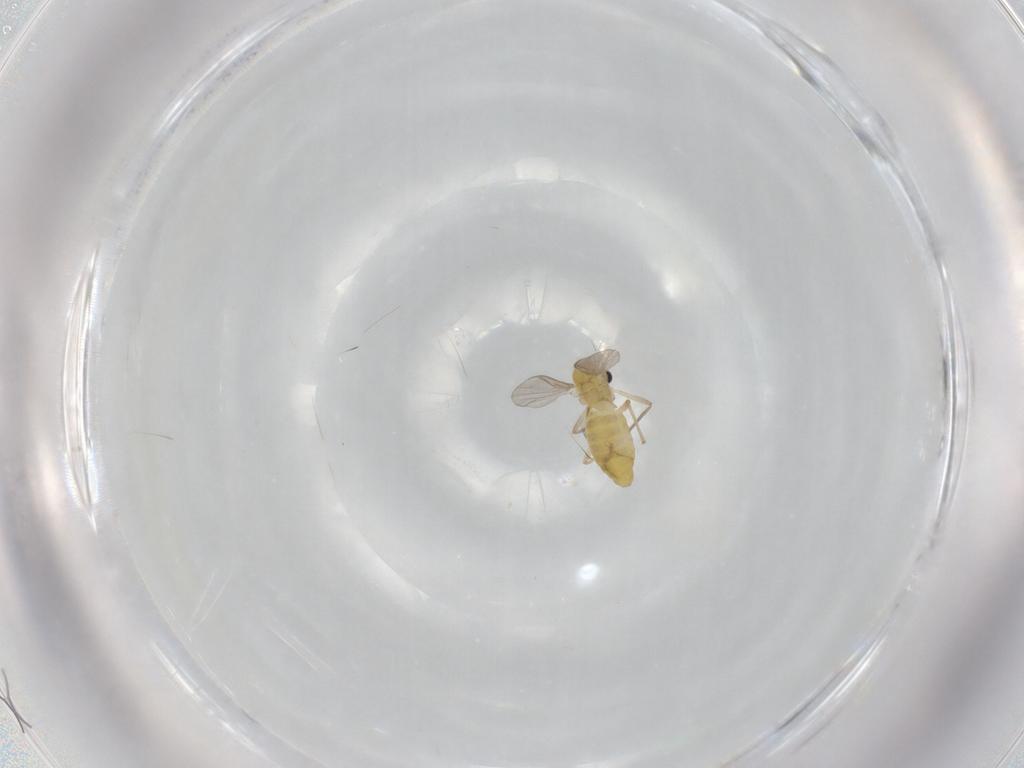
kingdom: Animalia
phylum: Arthropoda
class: Insecta
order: Diptera
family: Chironomidae
